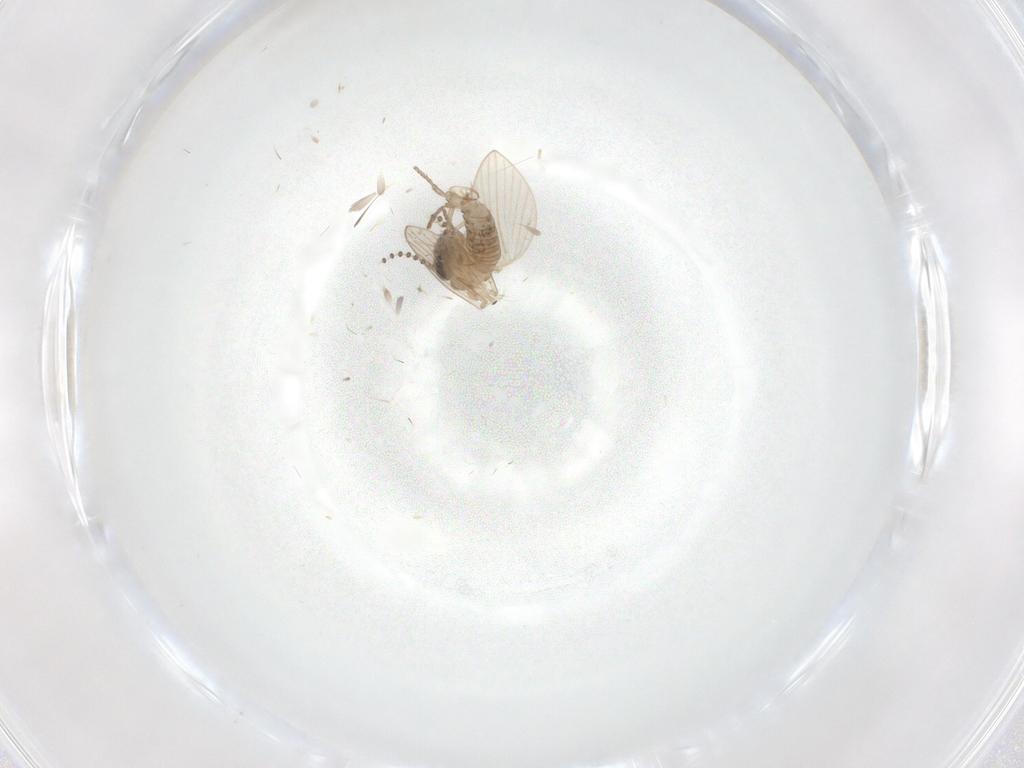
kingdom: Animalia
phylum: Arthropoda
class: Insecta
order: Diptera
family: Psychodidae
